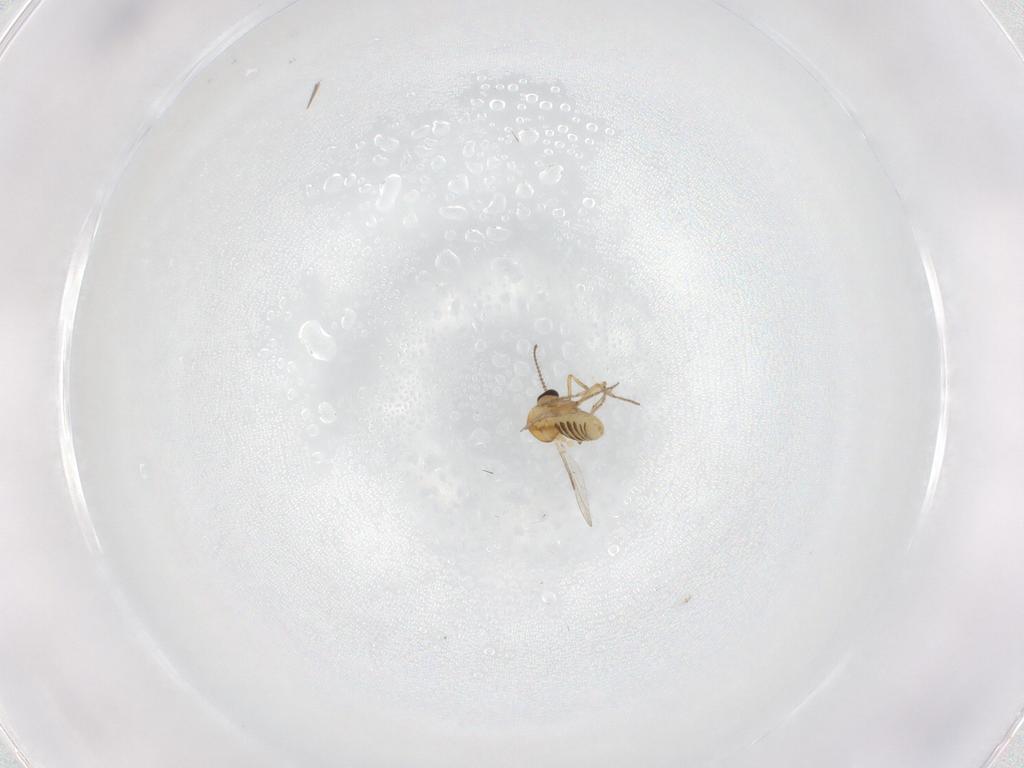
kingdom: Animalia
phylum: Arthropoda
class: Insecta
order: Diptera
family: Ceratopogonidae
